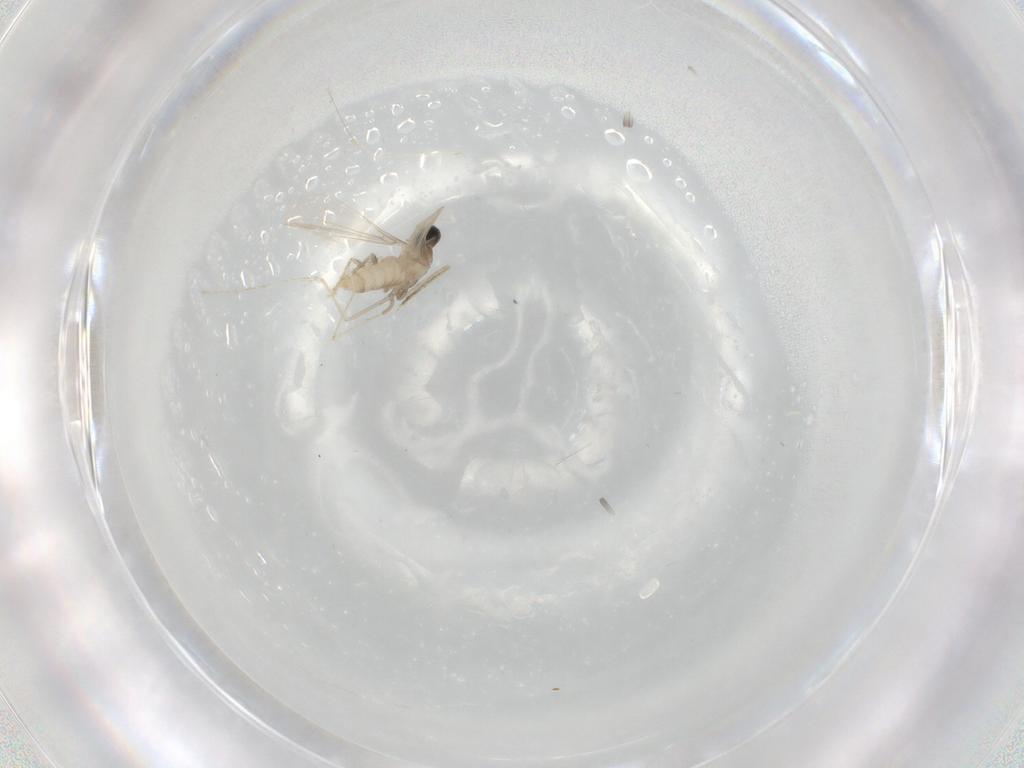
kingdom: Animalia
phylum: Arthropoda
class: Insecta
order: Diptera
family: Cecidomyiidae
